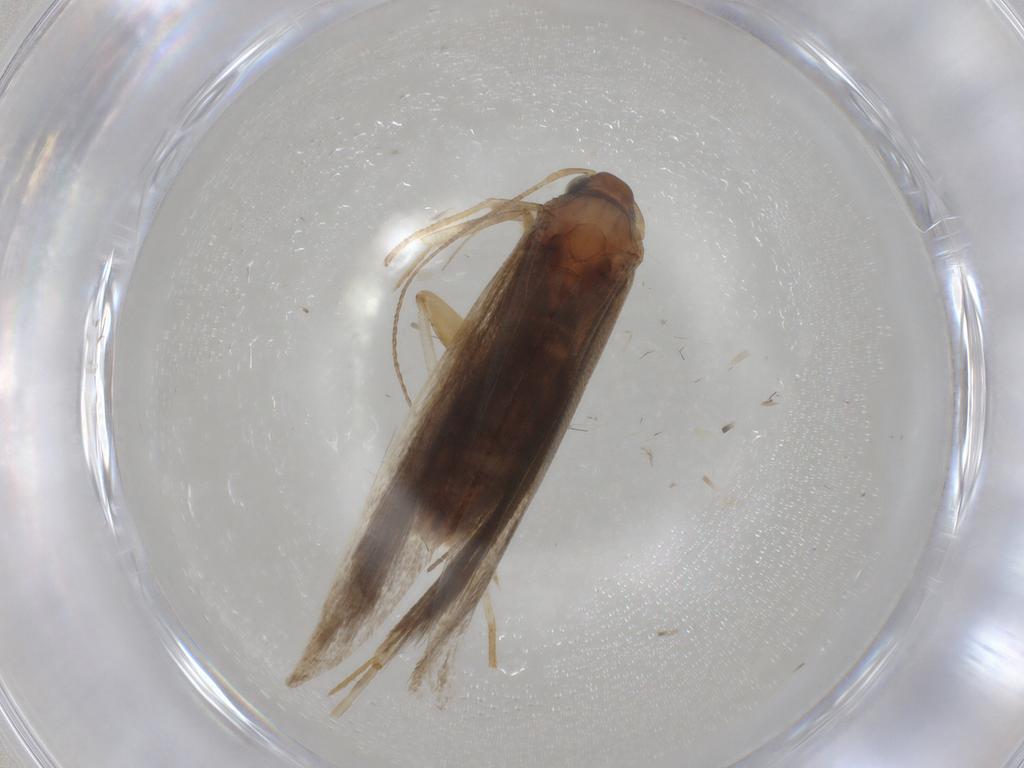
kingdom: Animalia
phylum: Arthropoda
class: Insecta
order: Lepidoptera
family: Gelechiidae
